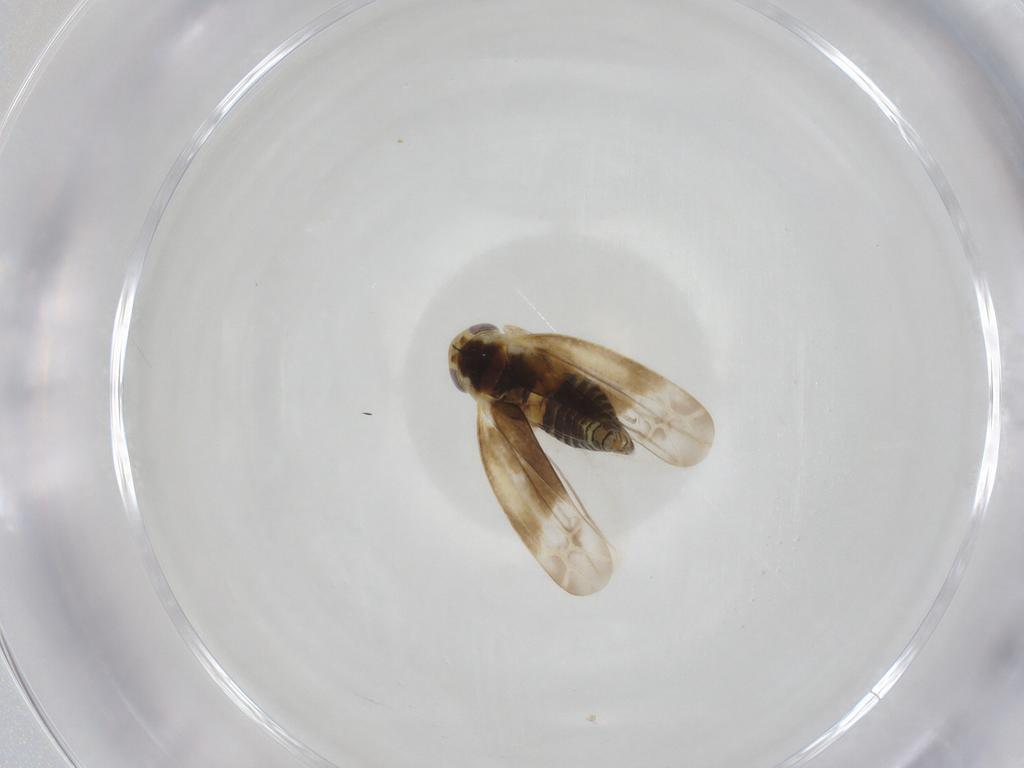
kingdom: Animalia
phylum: Arthropoda
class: Insecta
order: Hemiptera
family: Cicadellidae
